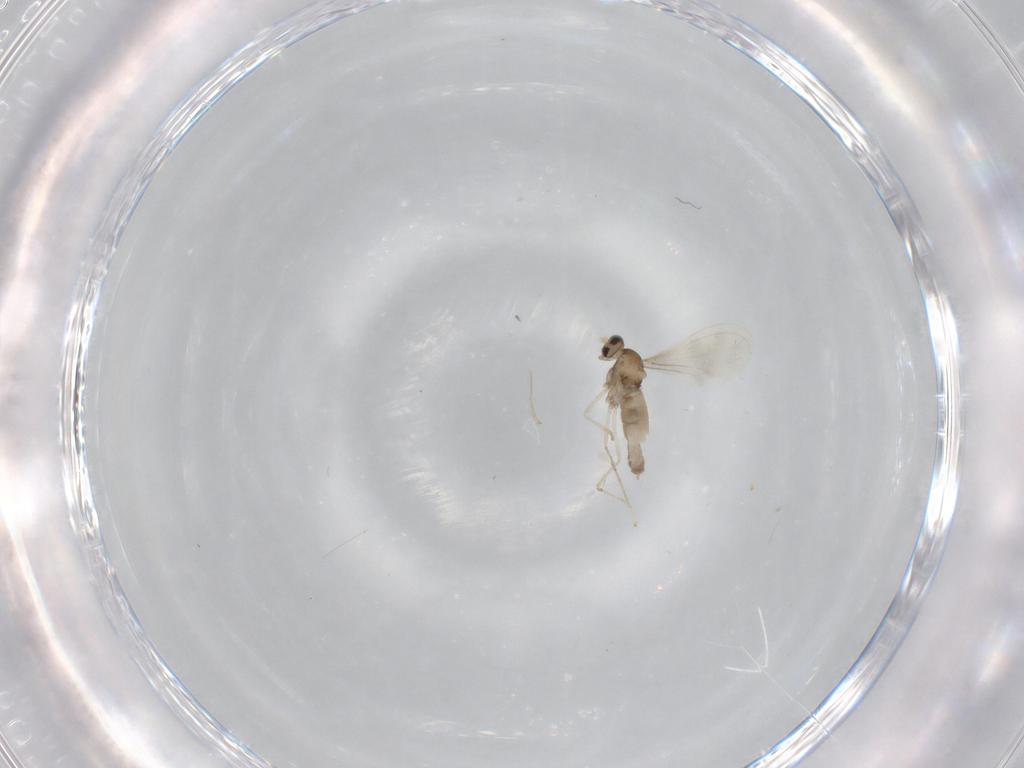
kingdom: Animalia
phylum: Arthropoda
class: Insecta
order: Diptera
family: Cecidomyiidae
